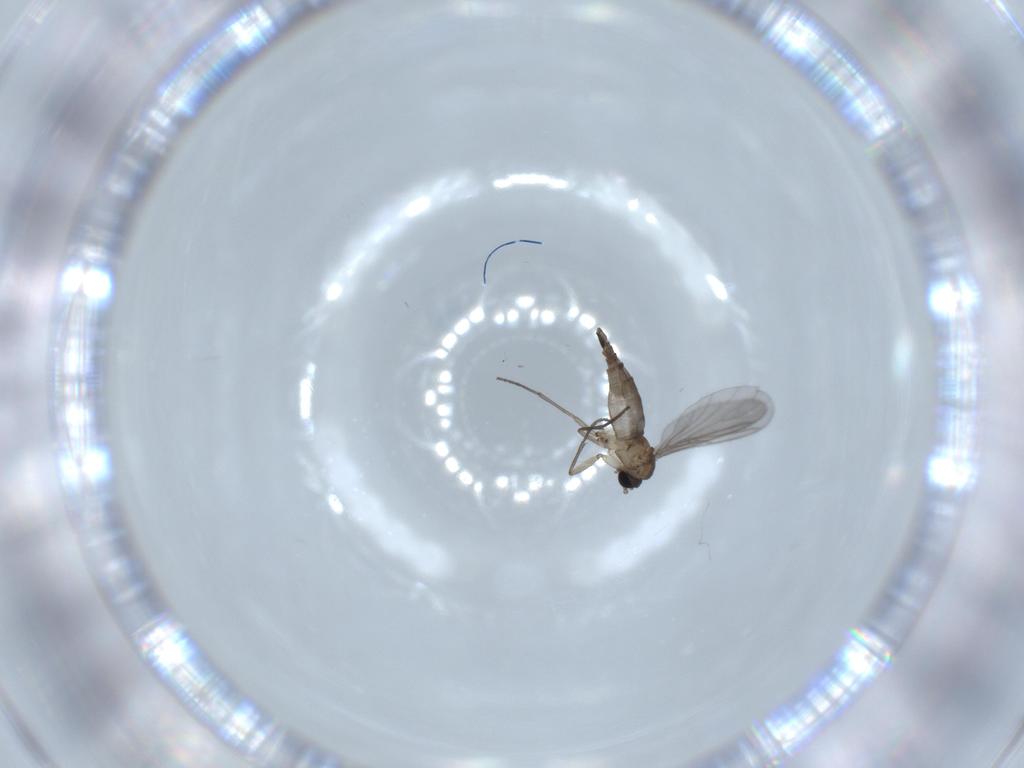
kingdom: Animalia
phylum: Arthropoda
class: Insecta
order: Diptera
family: Sciaridae
